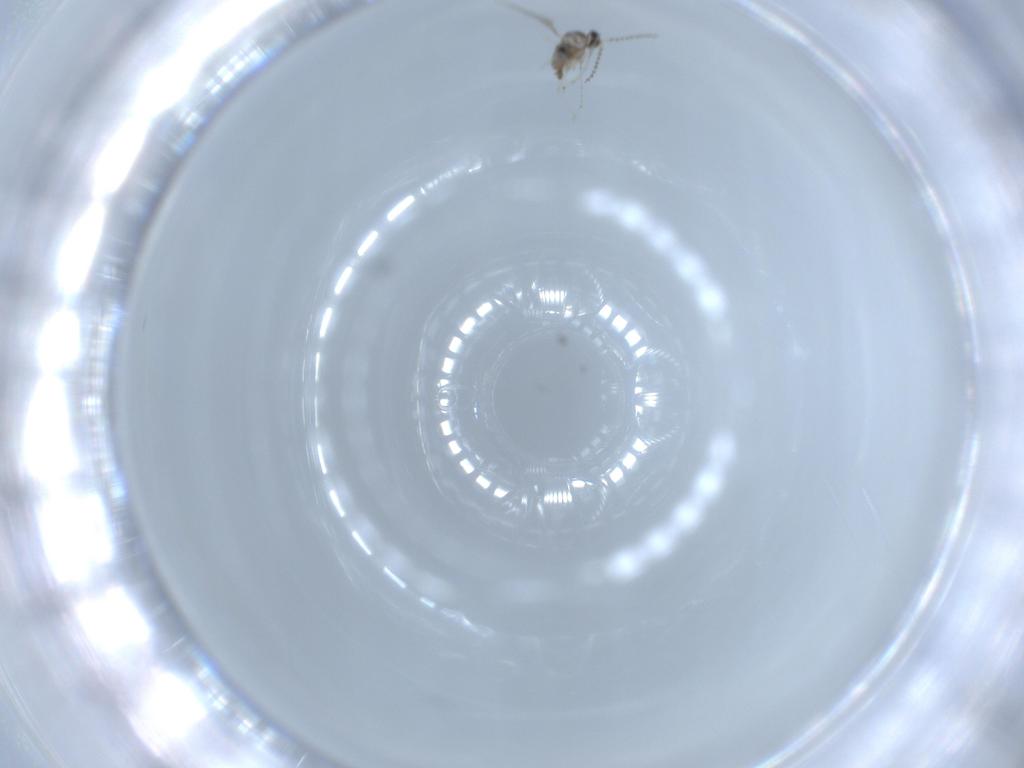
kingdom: Animalia
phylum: Arthropoda
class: Insecta
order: Diptera
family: Cecidomyiidae
